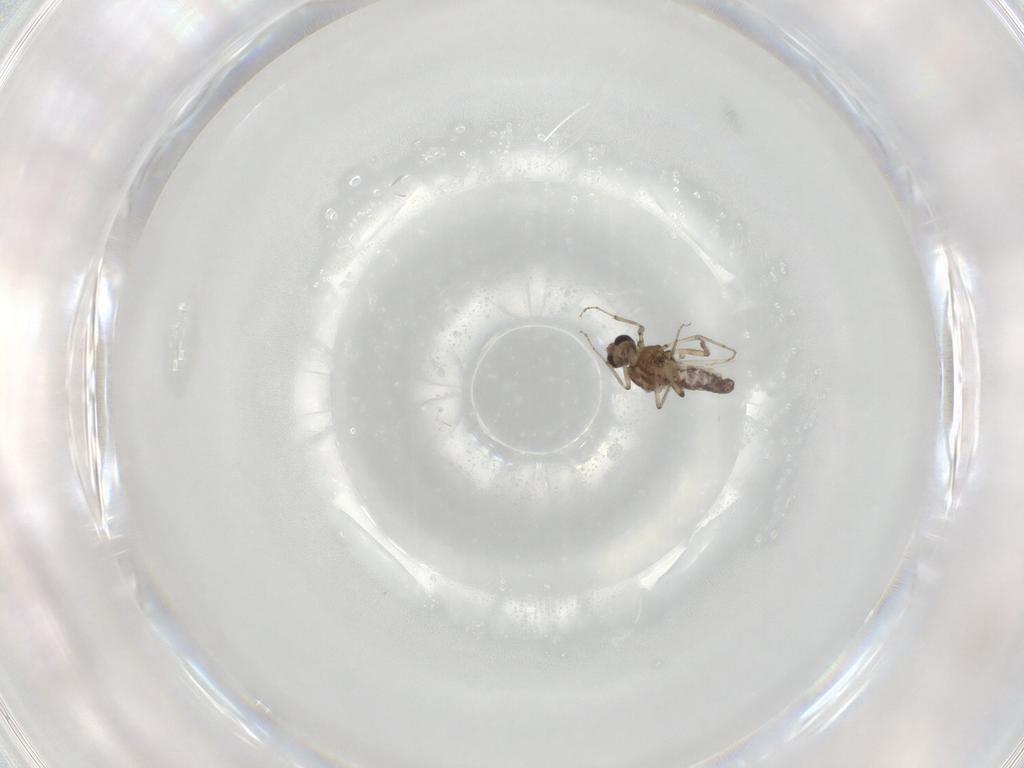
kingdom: Animalia
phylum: Arthropoda
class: Insecta
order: Diptera
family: Ceratopogonidae
